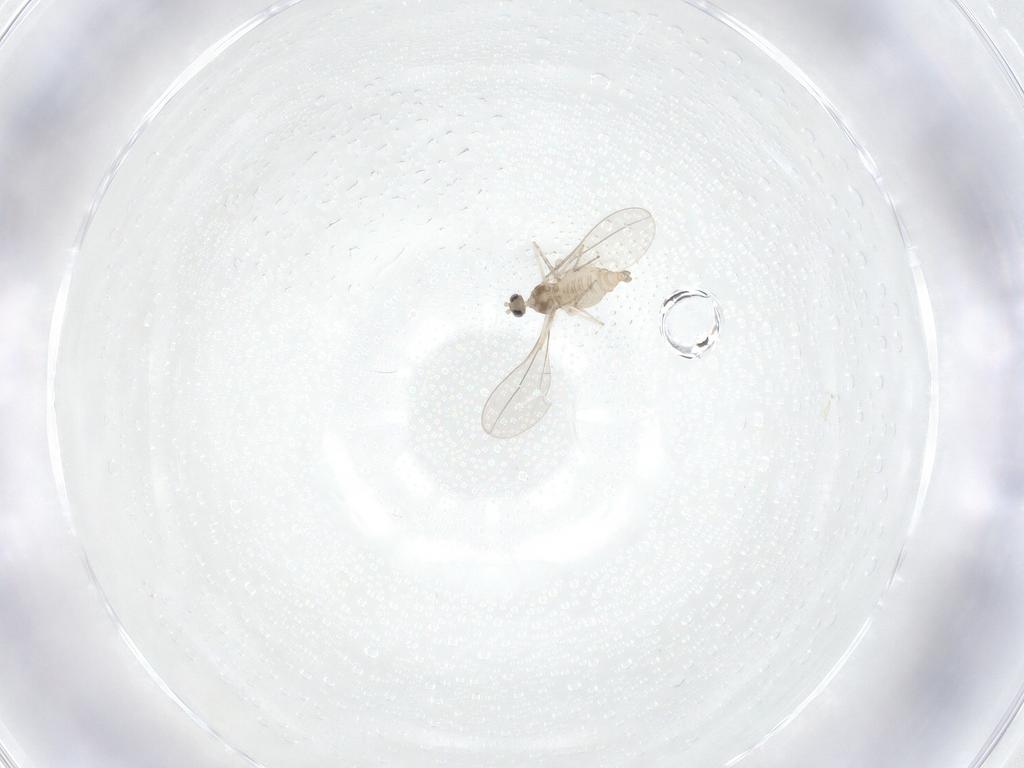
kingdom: Animalia
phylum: Arthropoda
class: Insecta
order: Diptera
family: Cecidomyiidae
